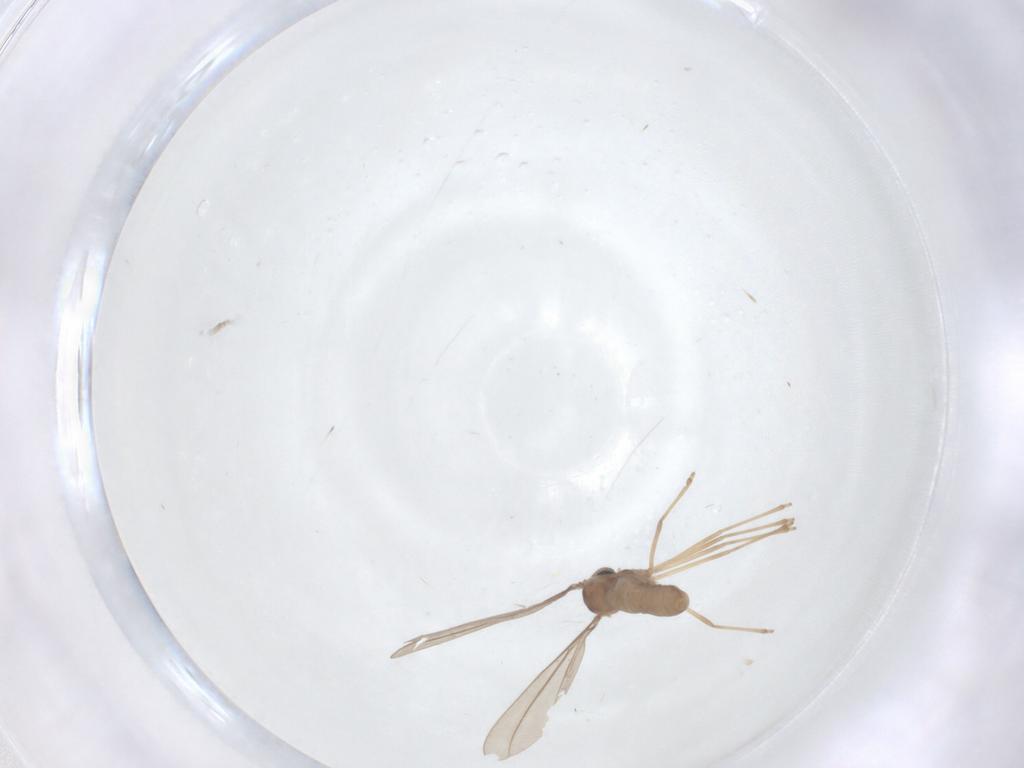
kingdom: Animalia
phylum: Arthropoda
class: Insecta
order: Diptera
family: Cecidomyiidae
